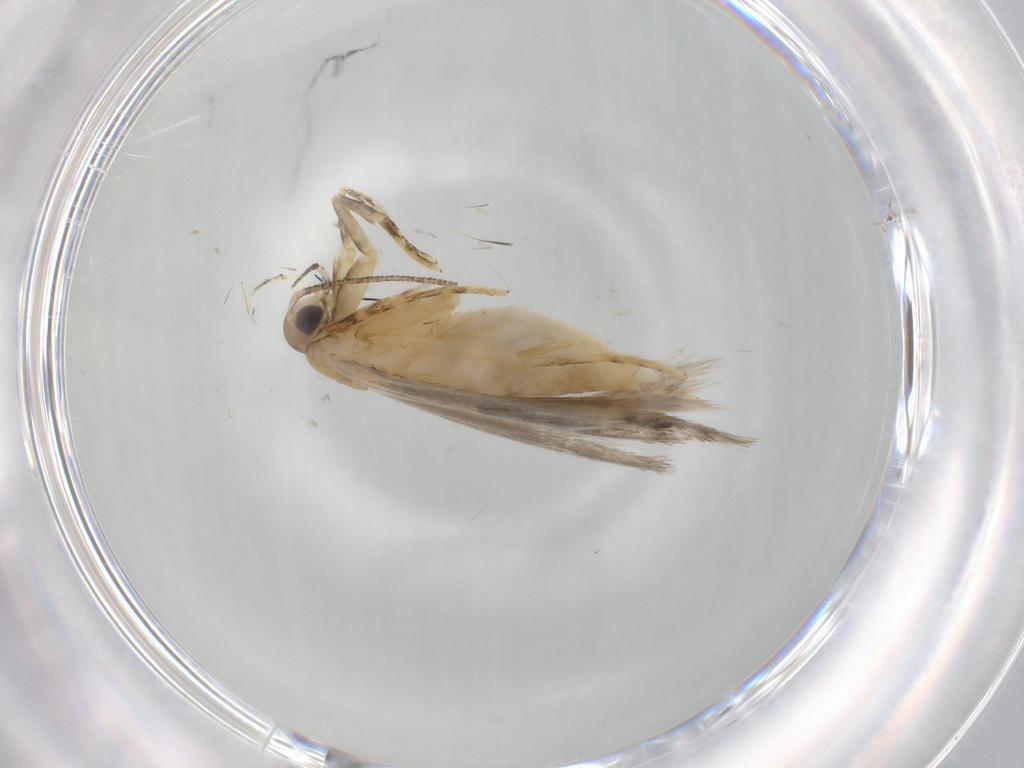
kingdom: Animalia
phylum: Arthropoda
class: Insecta
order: Lepidoptera
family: Autostichidae
